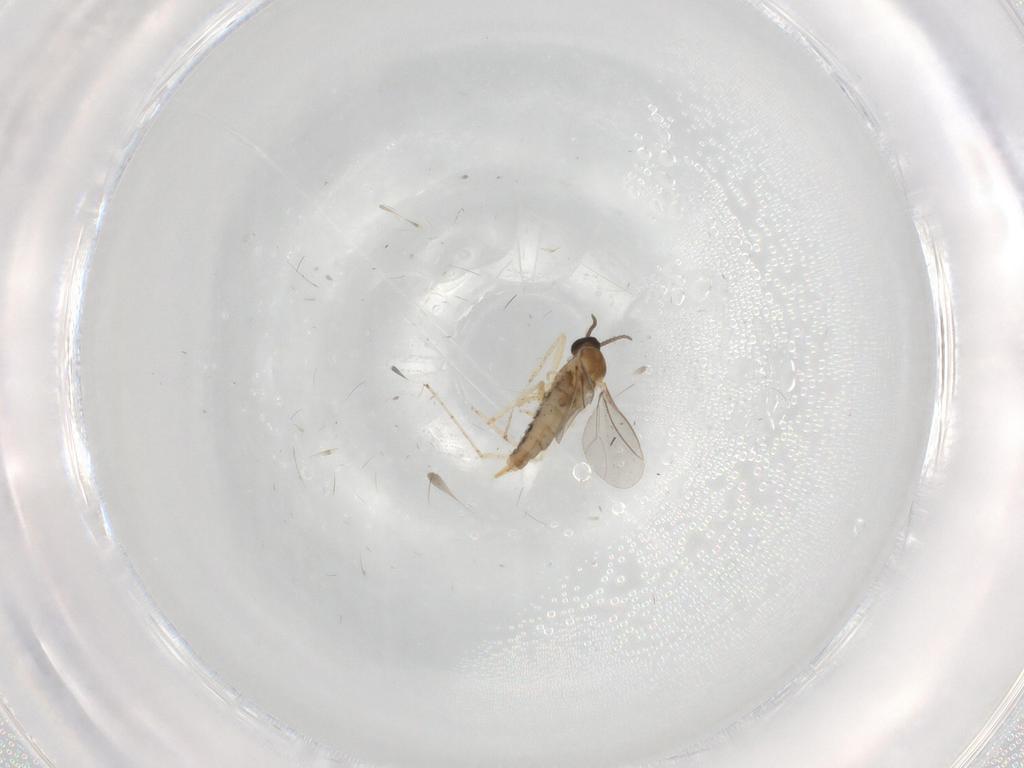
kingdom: Animalia
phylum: Arthropoda
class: Insecta
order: Diptera
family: Cecidomyiidae
